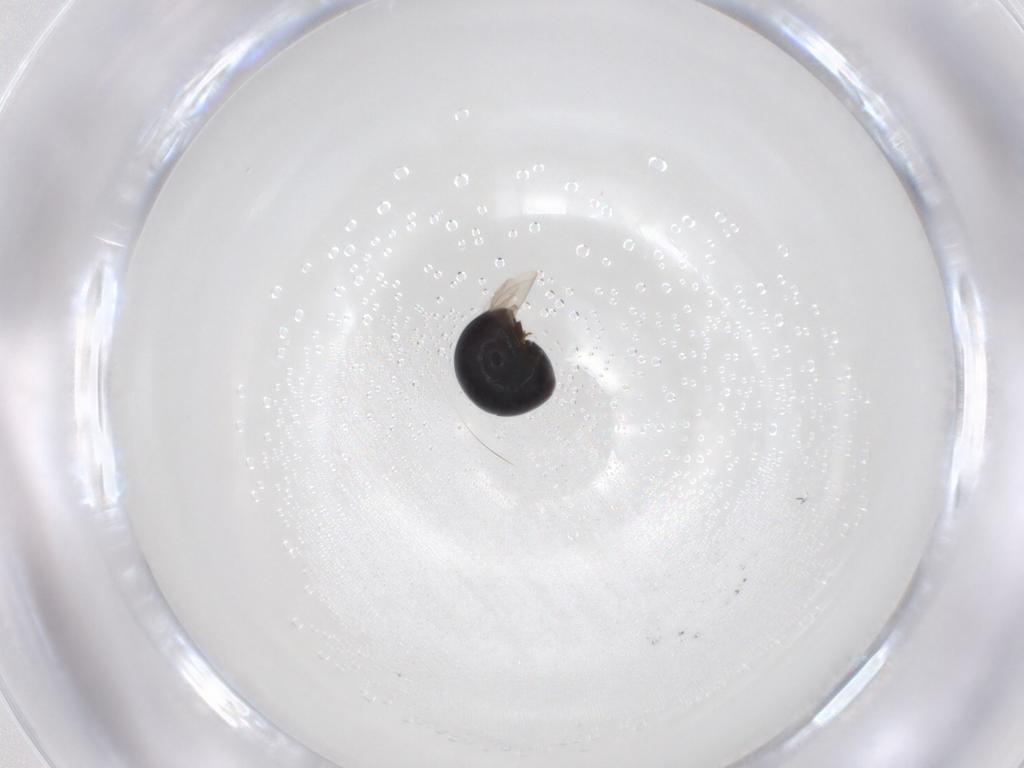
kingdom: Animalia
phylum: Arthropoda
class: Insecta
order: Coleoptera
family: Cybocephalidae
